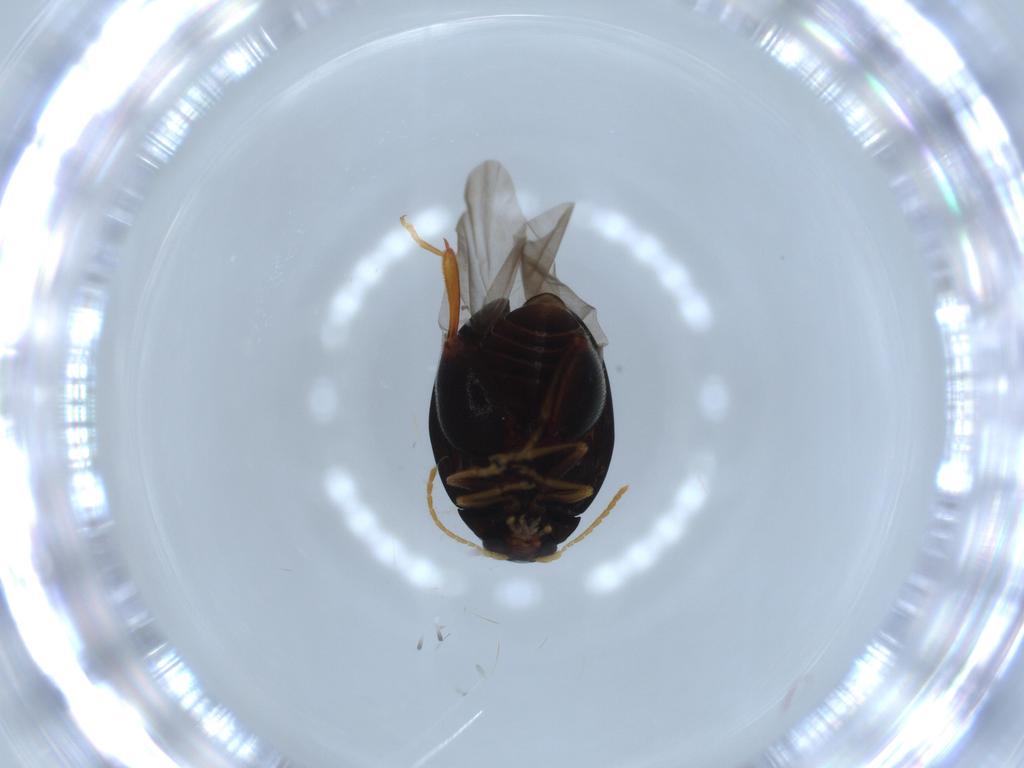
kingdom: Animalia
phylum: Arthropoda
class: Insecta
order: Coleoptera
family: Chrysomelidae
